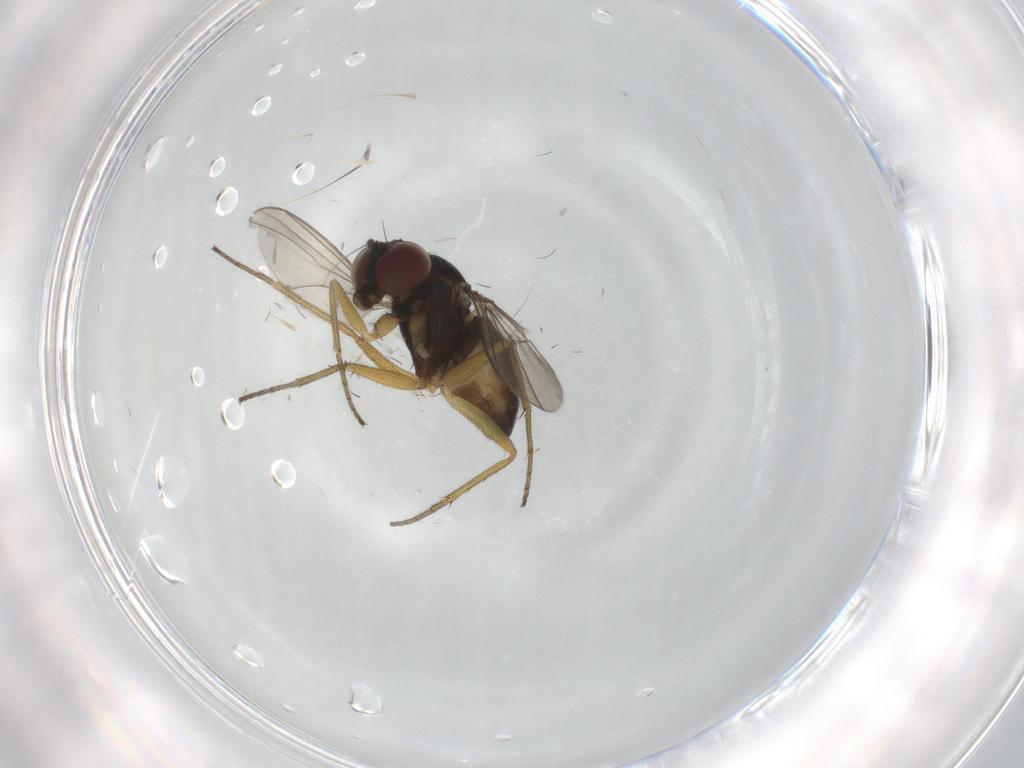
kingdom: Animalia
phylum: Arthropoda
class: Insecta
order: Diptera
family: Dolichopodidae
